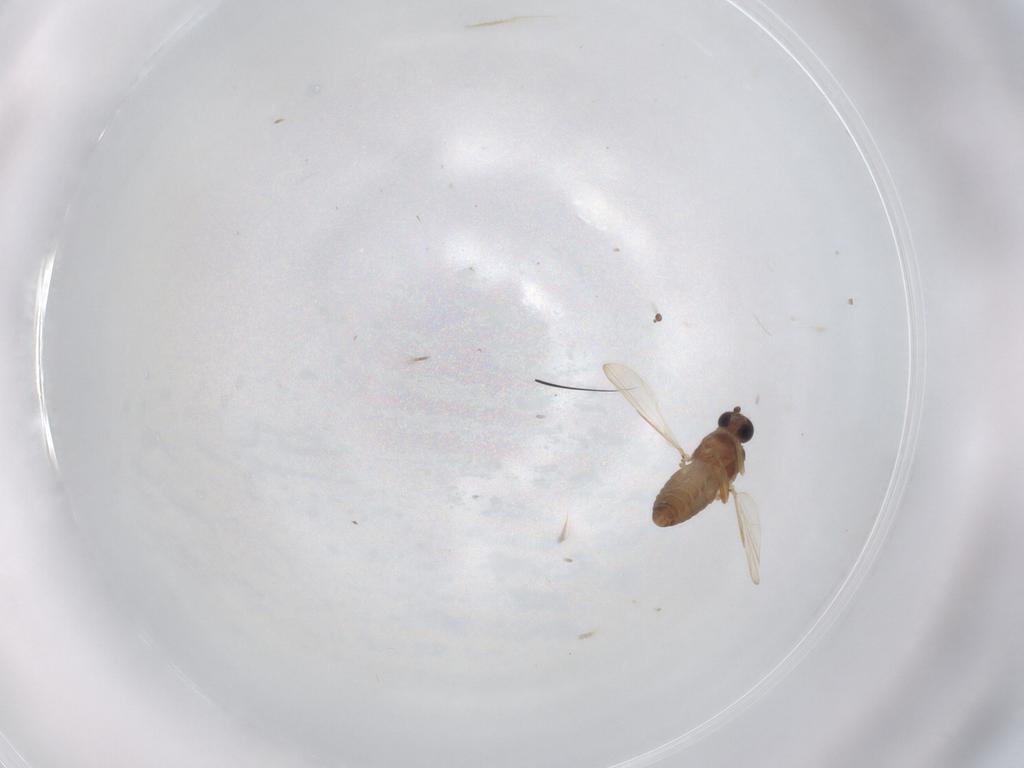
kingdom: Animalia
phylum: Arthropoda
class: Insecta
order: Diptera
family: Ceratopogonidae
